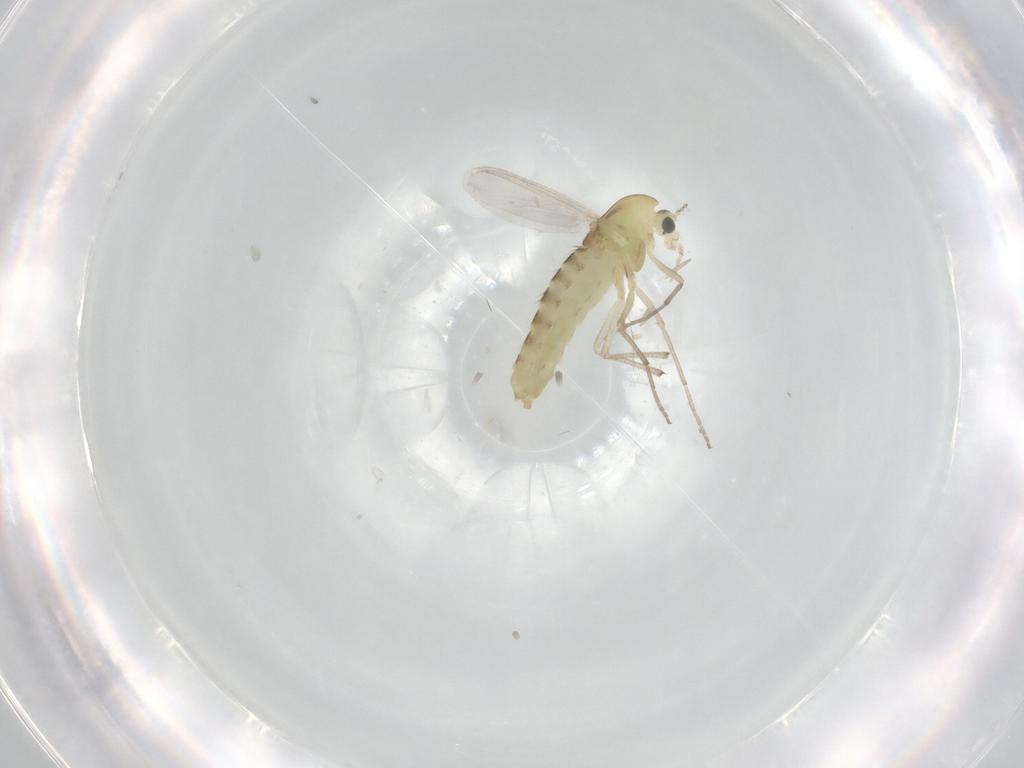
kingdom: Animalia
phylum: Arthropoda
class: Insecta
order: Diptera
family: Chironomidae
